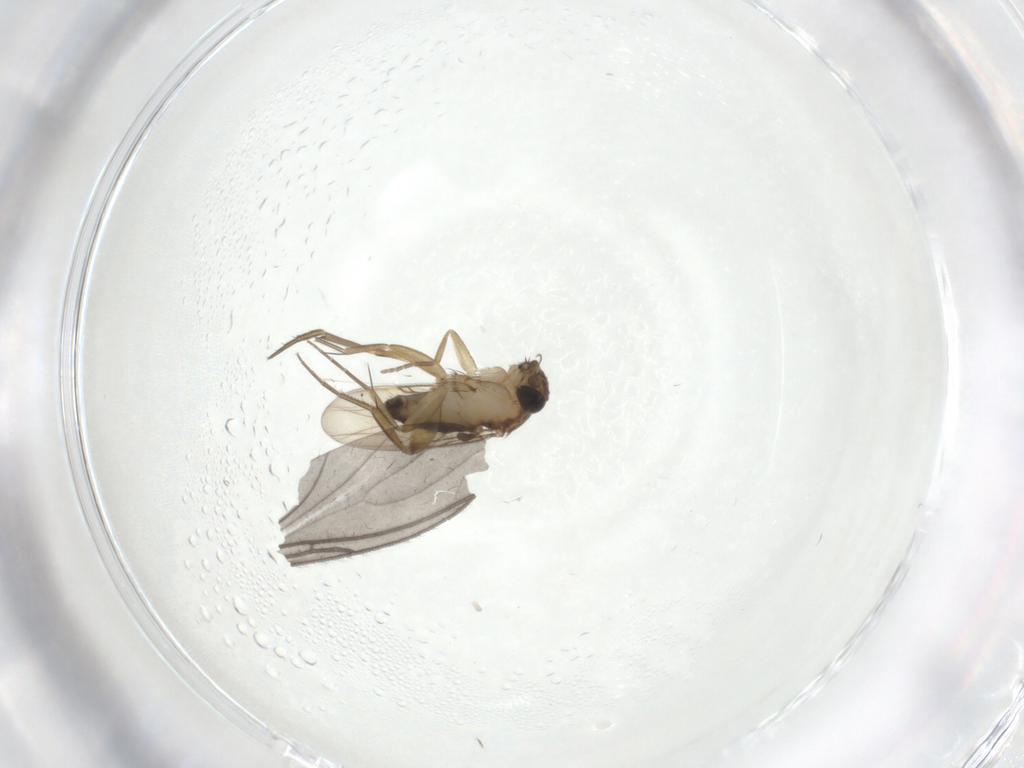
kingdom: Animalia
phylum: Arthropoda
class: Insecta
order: Diptera
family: Phoridae
